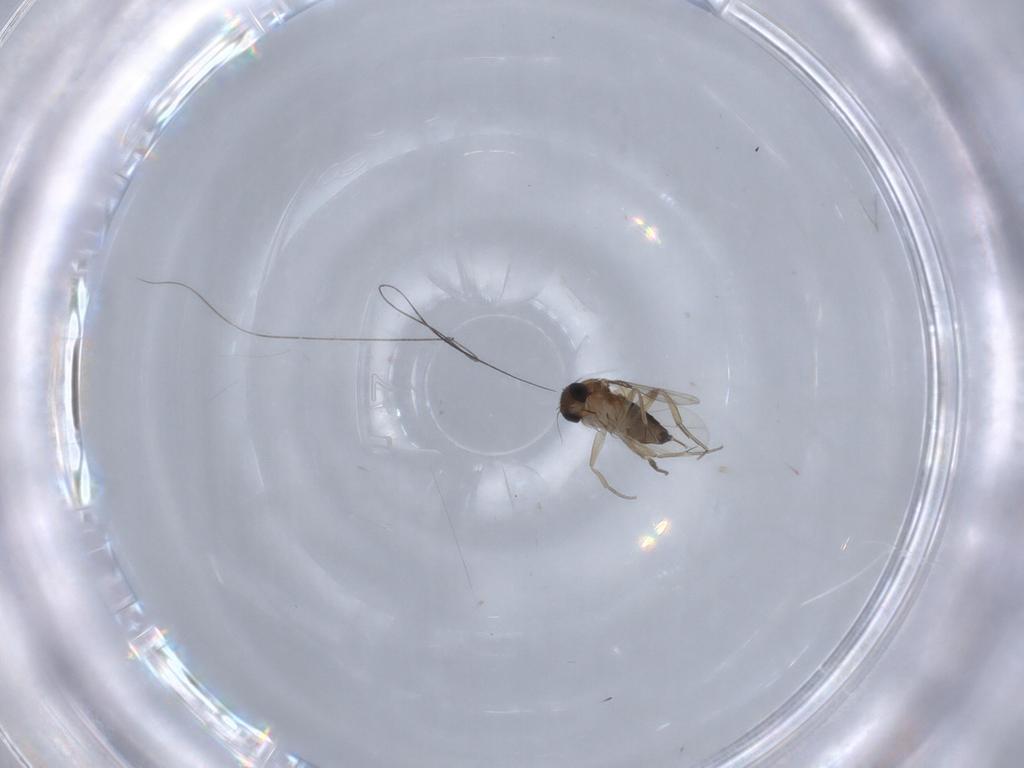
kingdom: Animalia
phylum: Arthropoda
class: Insecta
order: Diptera
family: Phoridae
